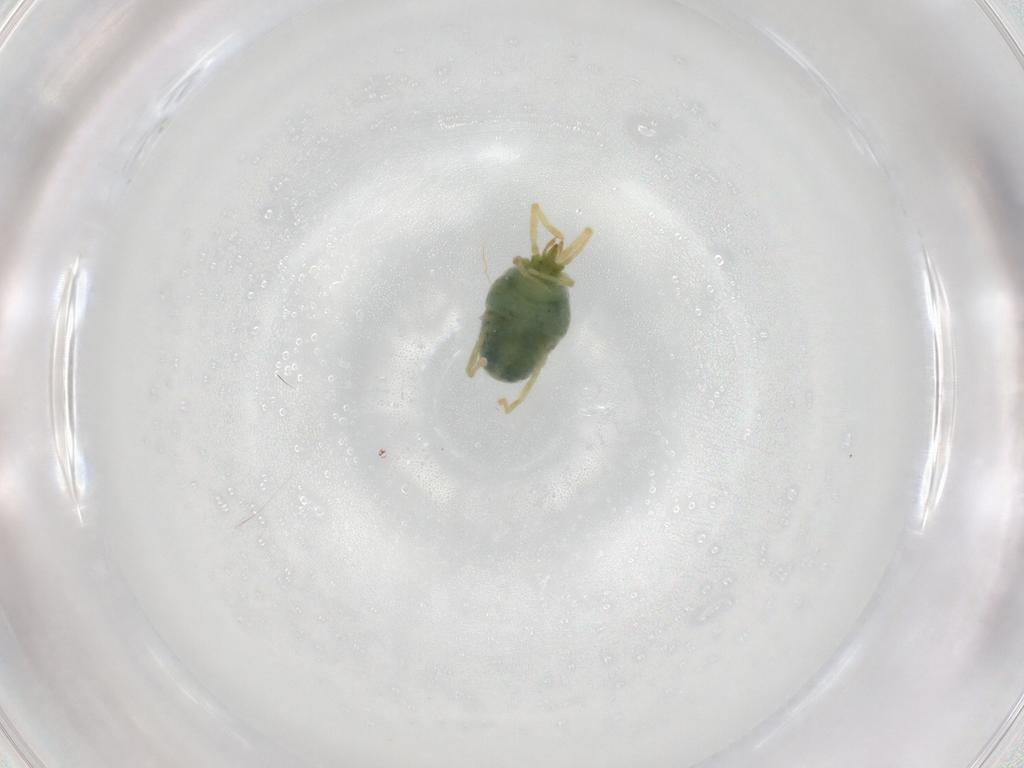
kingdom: Animalia
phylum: Arthropoda
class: Arachnida
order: Trombidiformes
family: Erythraeidae
